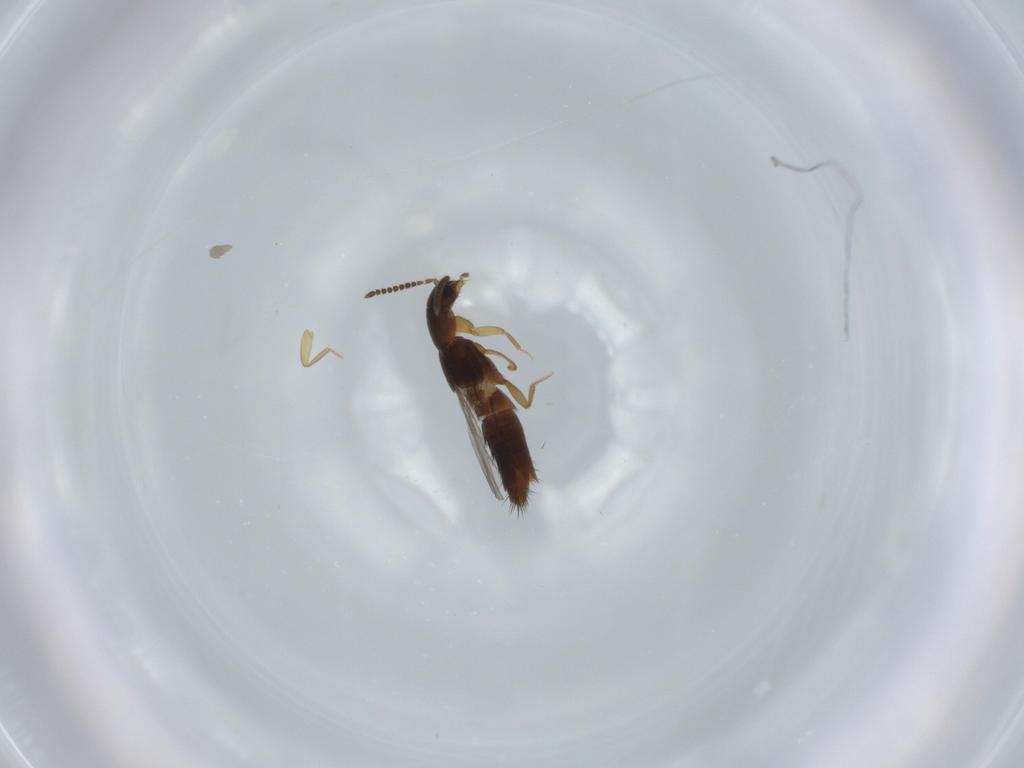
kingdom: Animalia
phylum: Arthropoda
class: Insecta
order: Coleoptera
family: Staphylinidae
